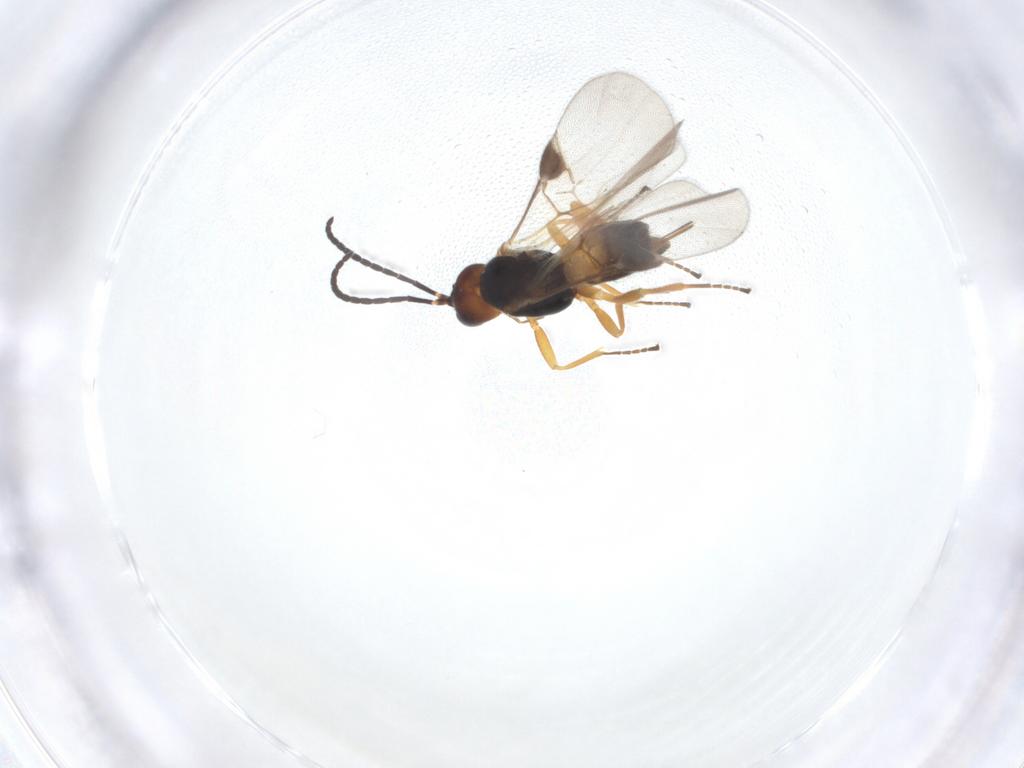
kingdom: Animalia
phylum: Arthropoda
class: Insecta
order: Hymenoptera
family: Braconidae
